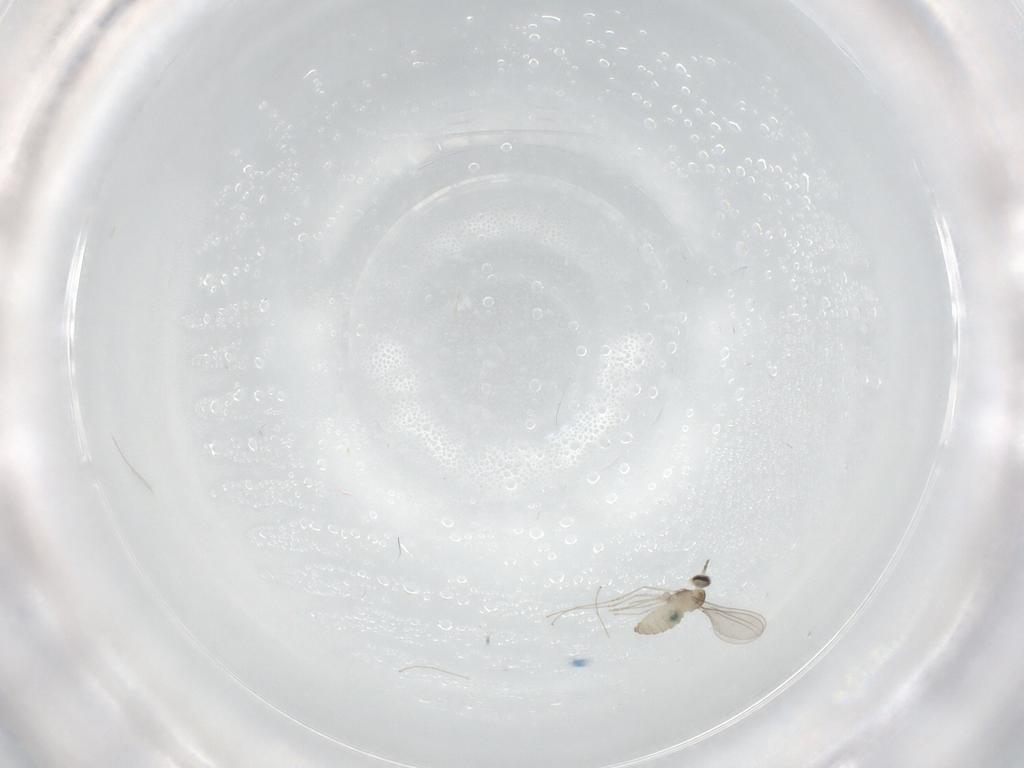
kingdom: Animalia
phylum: Arthropoda
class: Insecta
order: Diptera
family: Cecidomyiidae
